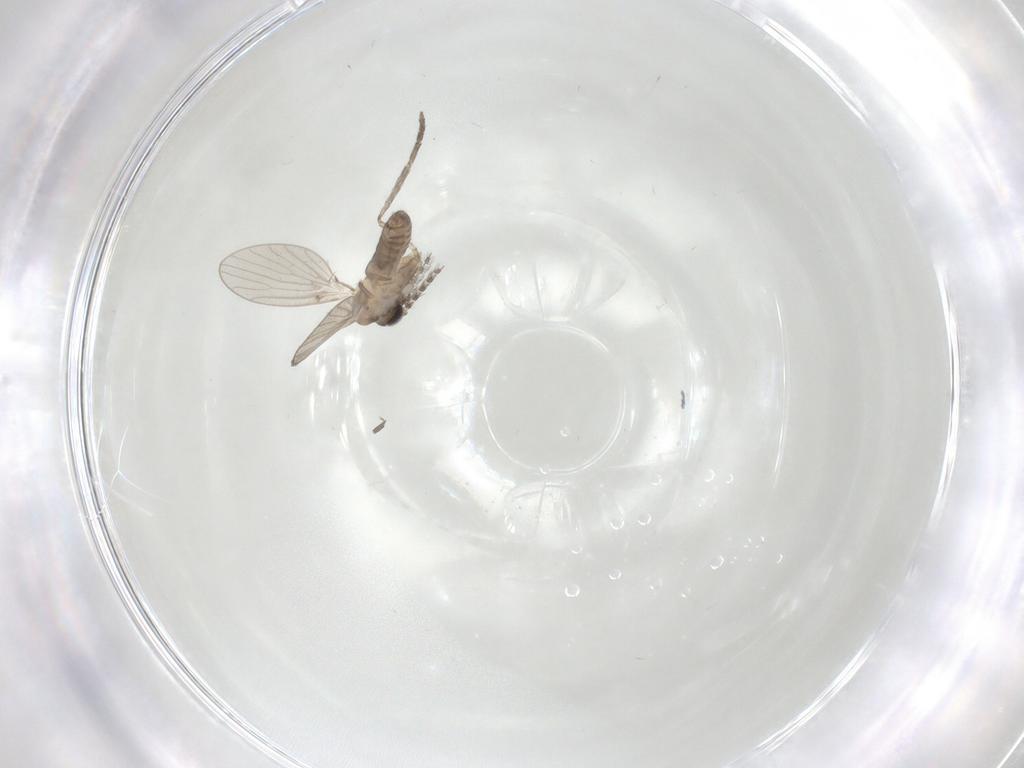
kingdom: Animalia
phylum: Arthropoda
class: Insecta
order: Diptera
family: Psychodidae
